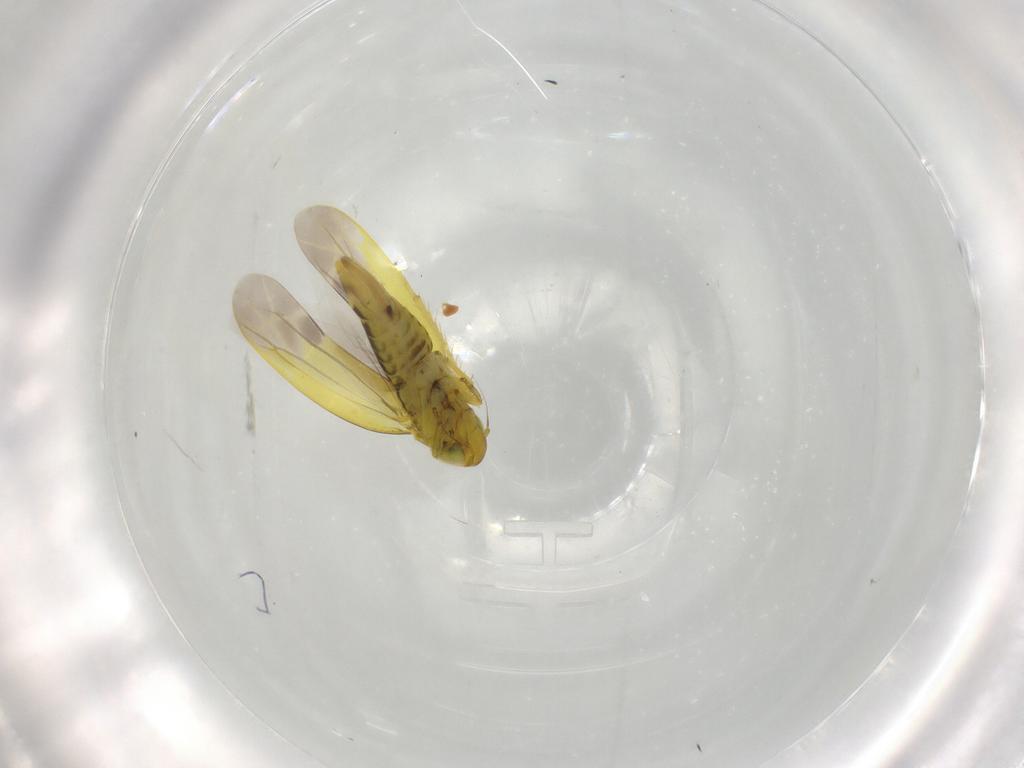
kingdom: Animalia
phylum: Arthropoda
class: Insecta
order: Hemiptera
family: Cicadellidae
